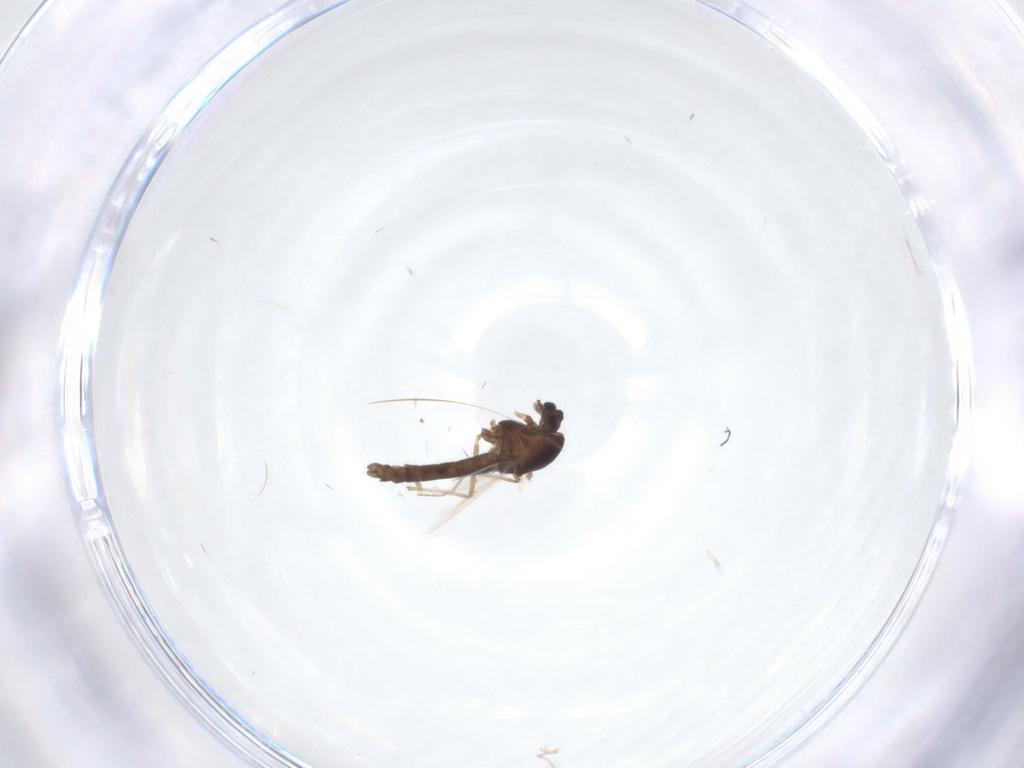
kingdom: Animalia
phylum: Arthropoda
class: Insecta
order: Diptera
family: Chironomidae
